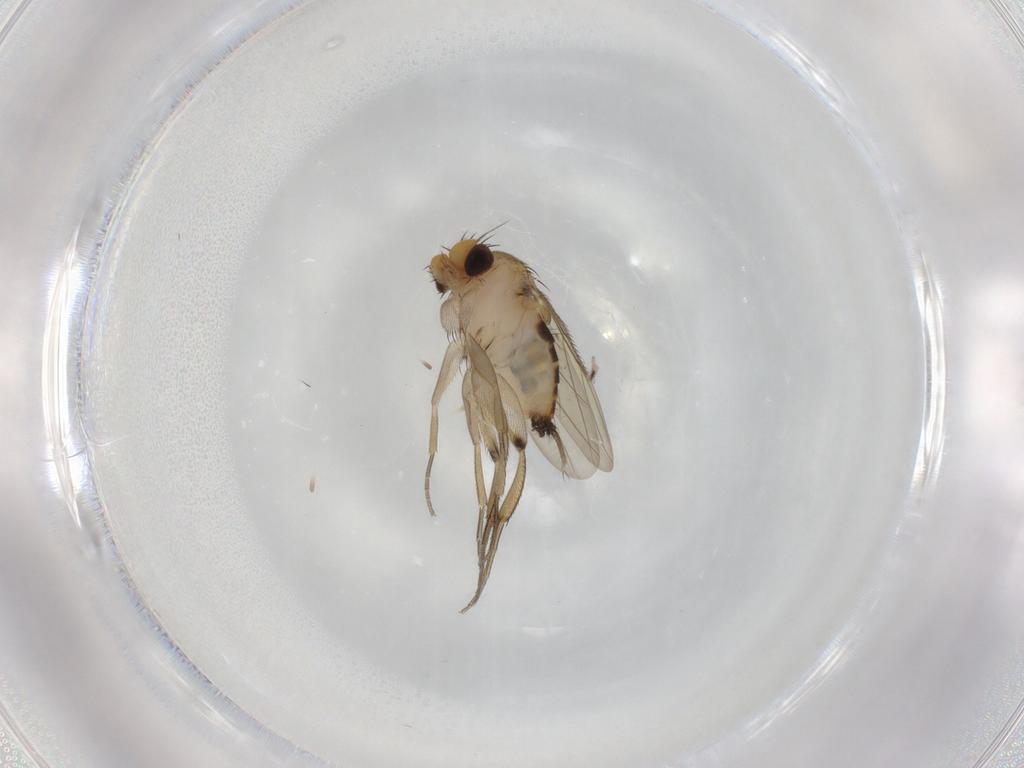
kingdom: Animalia
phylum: Arthropoda
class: Insecta
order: Diptera
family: Phoridae
